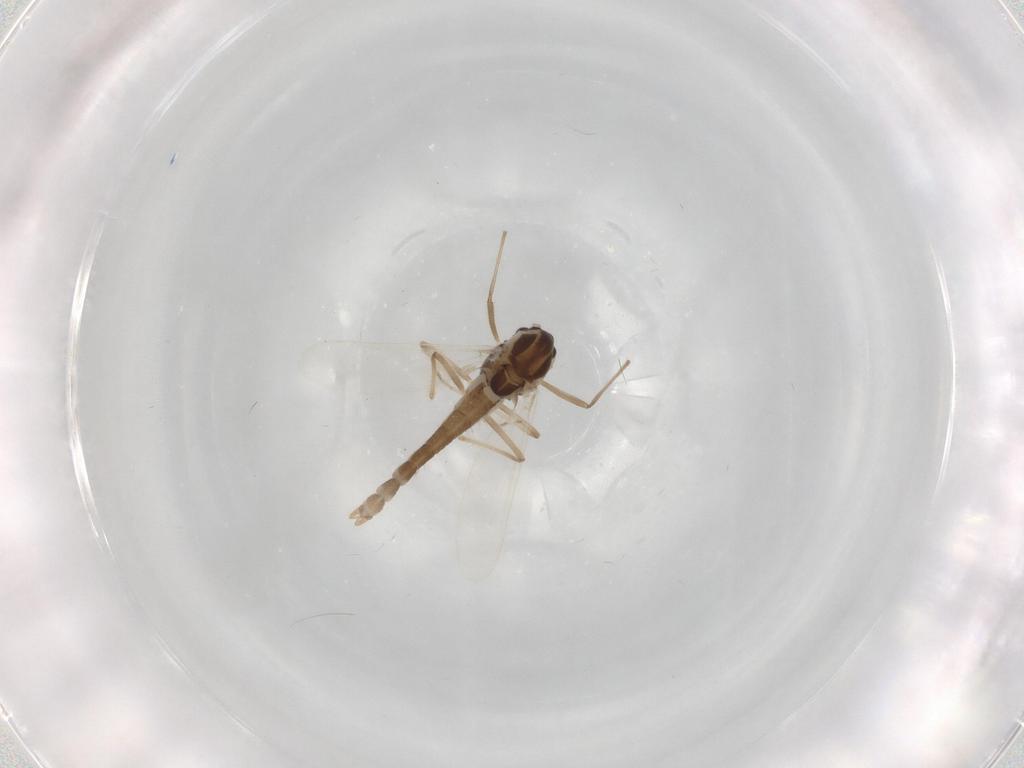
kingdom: Animalia
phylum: Arthropoda
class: Insecta
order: Diptera
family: Chironomidae
